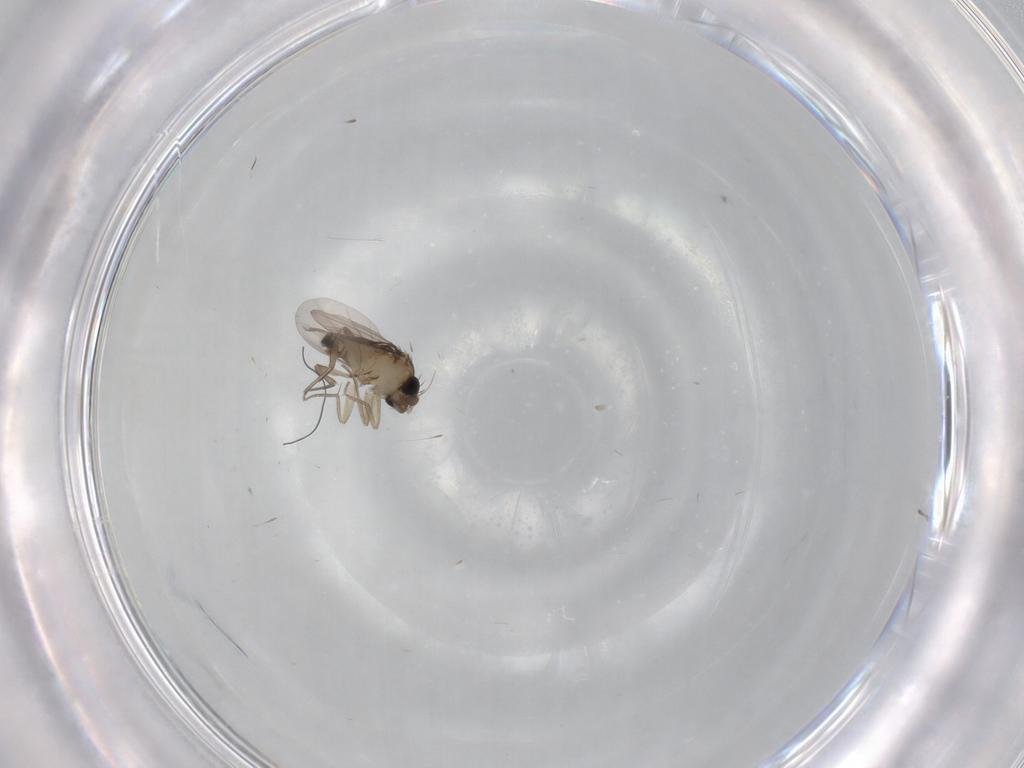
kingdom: Animalia
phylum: Arthropoda
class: Insecta
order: Diptera
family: Phoridae
